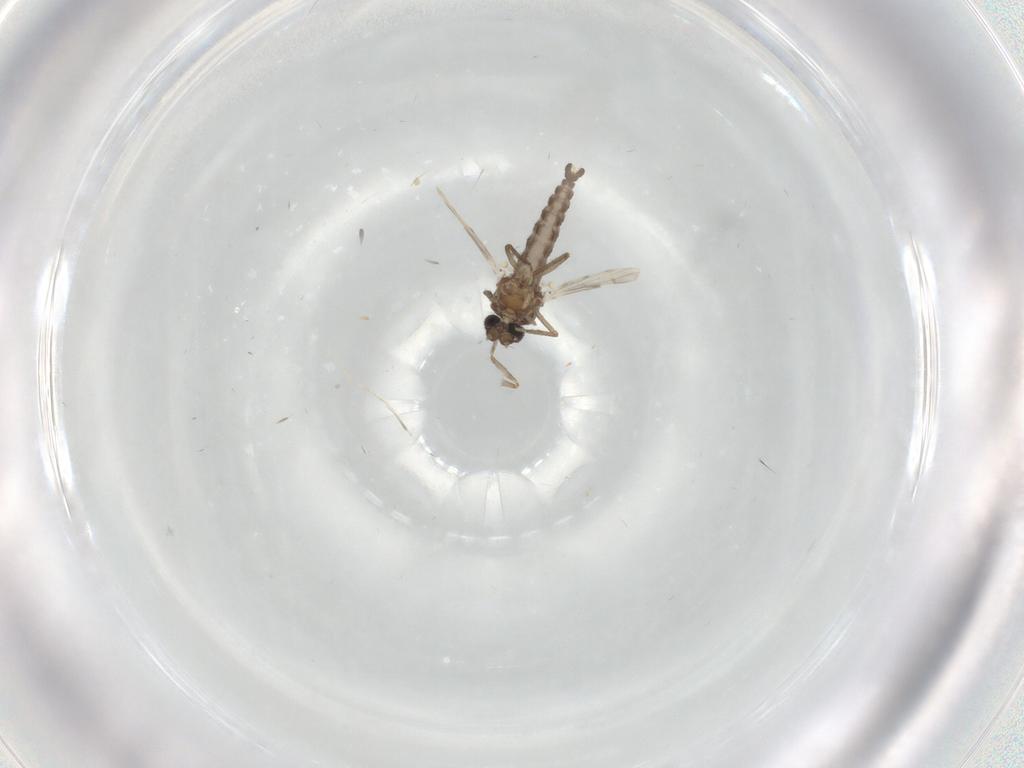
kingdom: Animalia
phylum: Arthropoda
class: Insecta
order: Diptera
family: Ceratopogonidae
